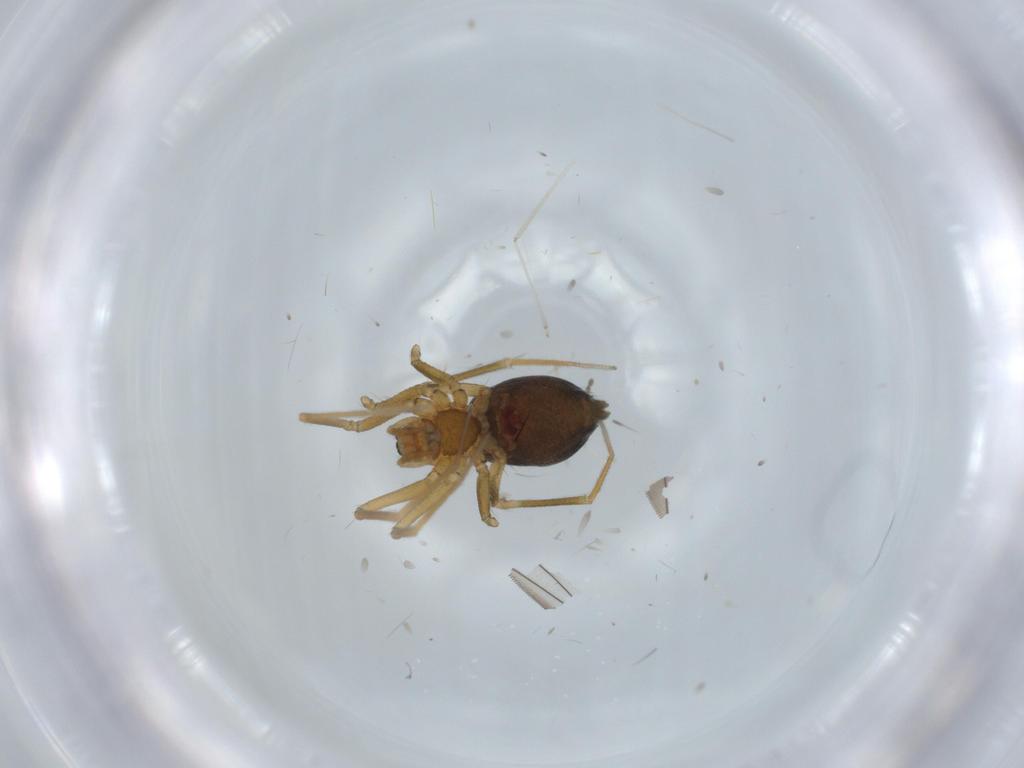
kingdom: Animalia
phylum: Arthropoda
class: Arachnida
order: Araneae
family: Linyphiidae
